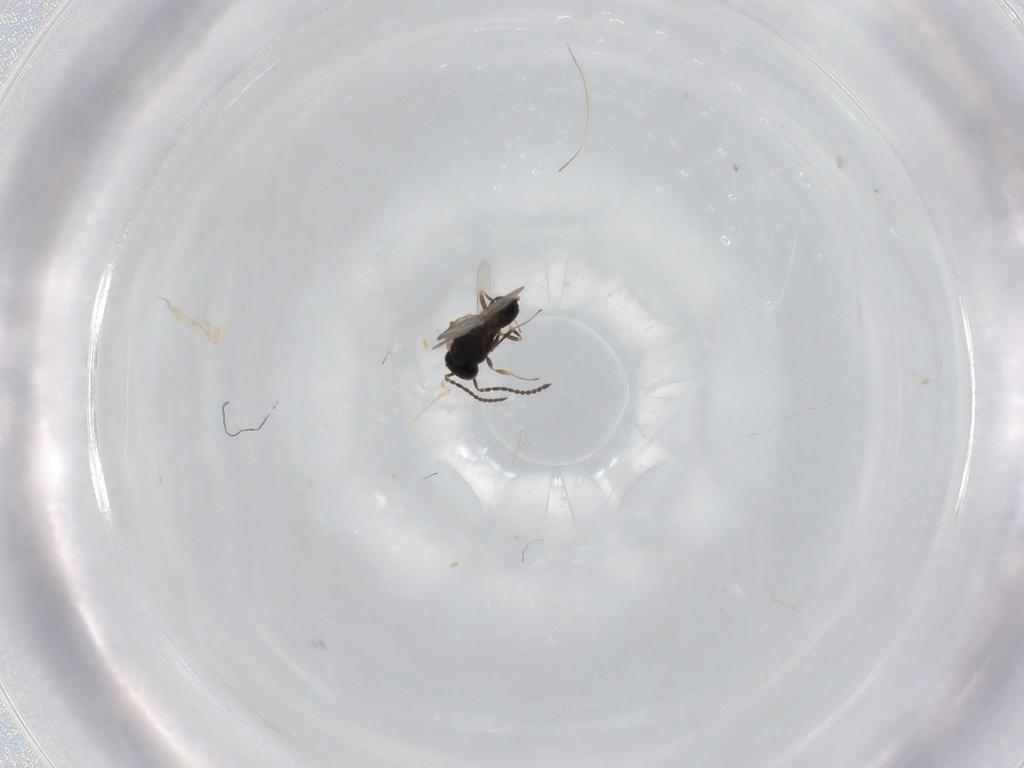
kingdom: Animalia
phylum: Arthropoda
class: Insecta
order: Hymenoptera
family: Scelionidae
